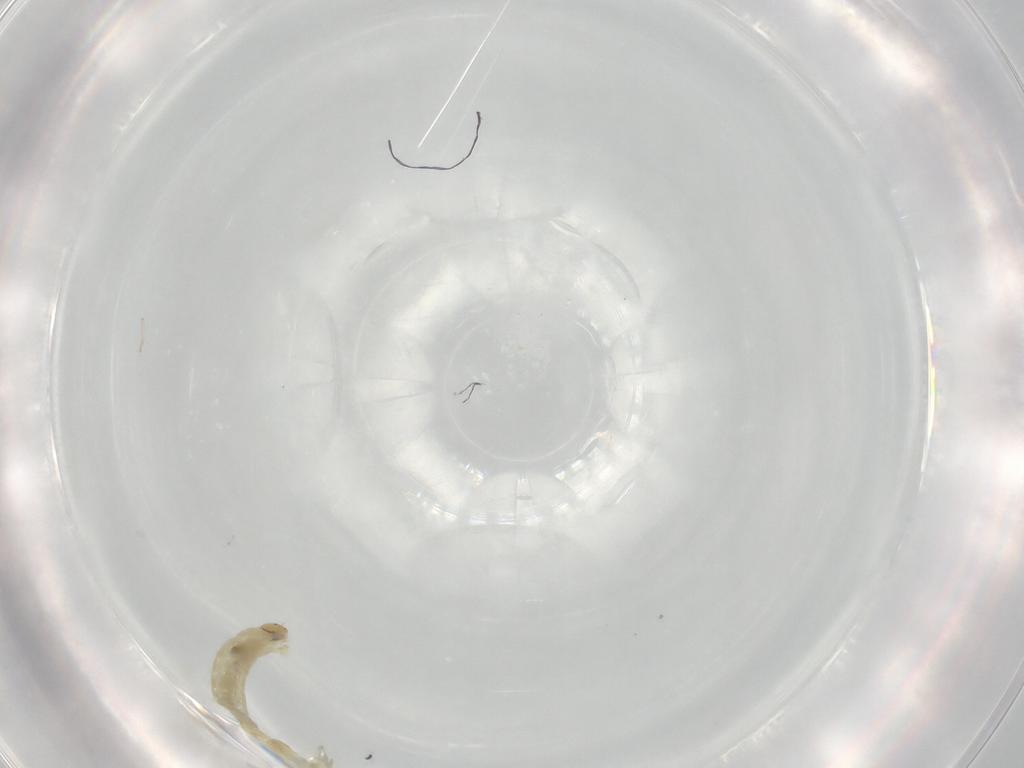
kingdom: Animalia
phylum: Arthropoda
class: Insecta
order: Diptera
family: Chironomidae
